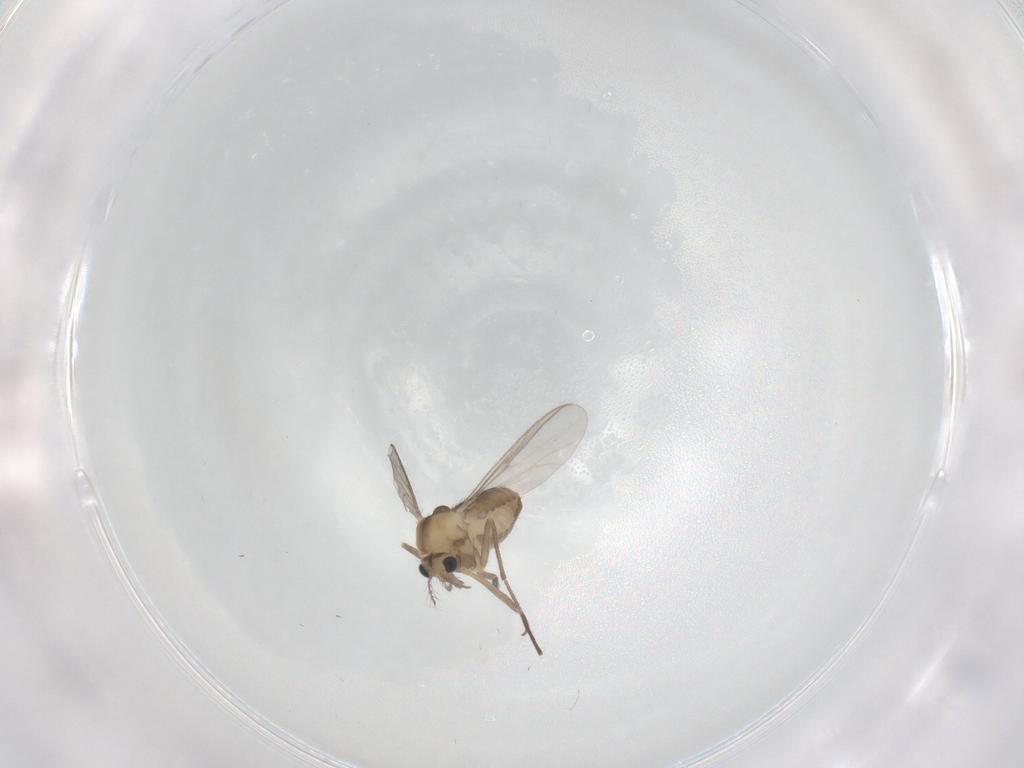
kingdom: Animalia
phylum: Arthropoda
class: Insecta
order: Diptera
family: Chironomidae
